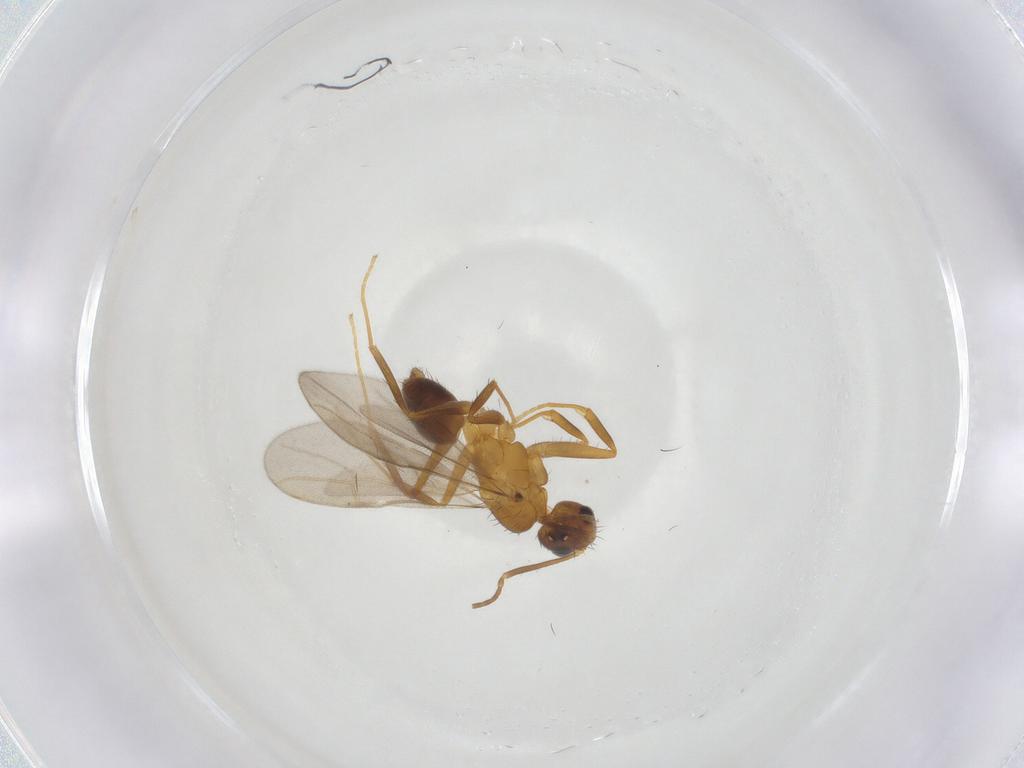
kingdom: Animalia
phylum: Arthropoda
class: Insecta
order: Hymenoptera
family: Formicidae
